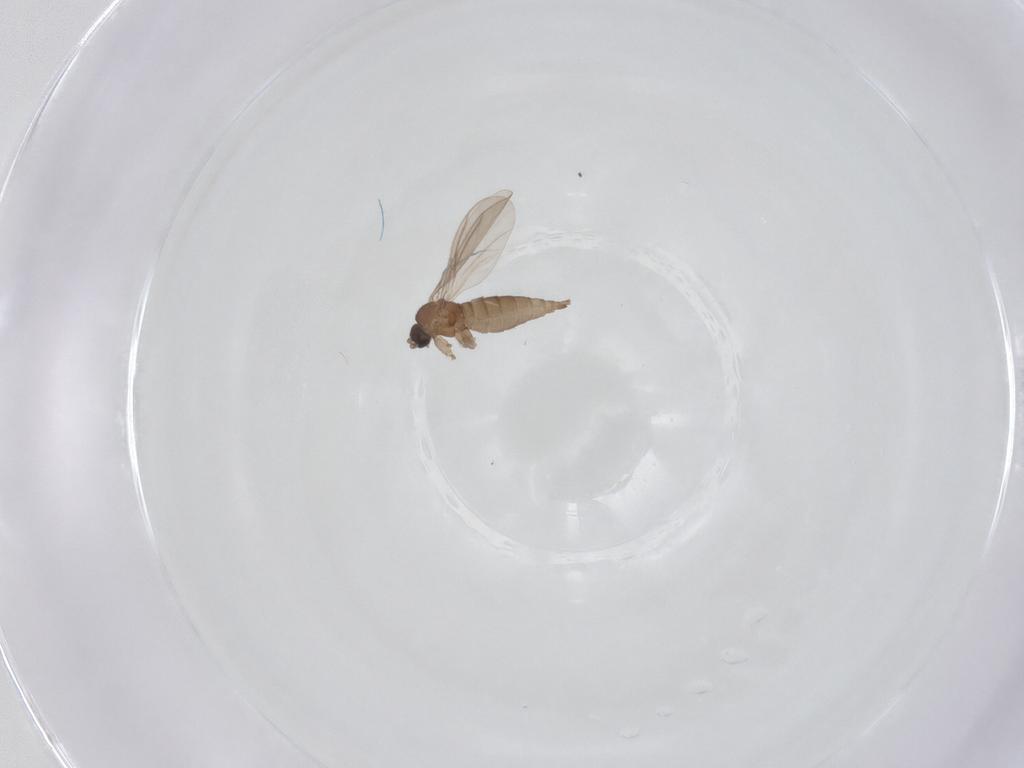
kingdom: Animalia
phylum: Arthropoda
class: Insecta
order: Diptera
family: Sciaridae
